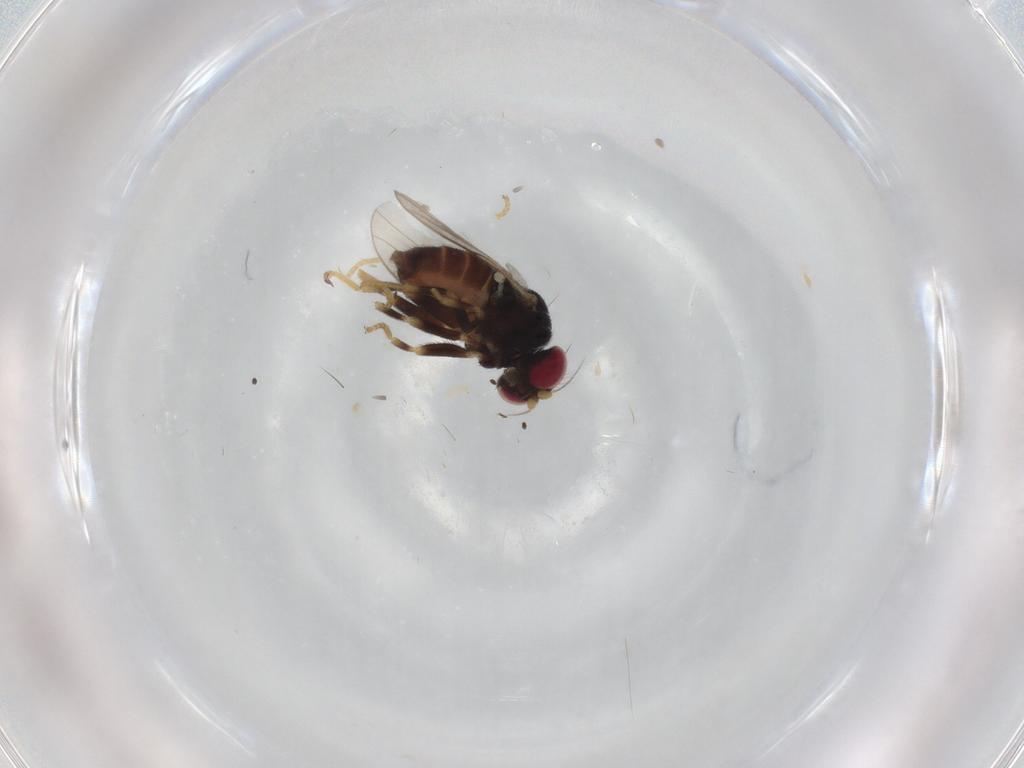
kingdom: Animalia
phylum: Arthropoda
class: Insecta
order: Diptera
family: Chloropidae
